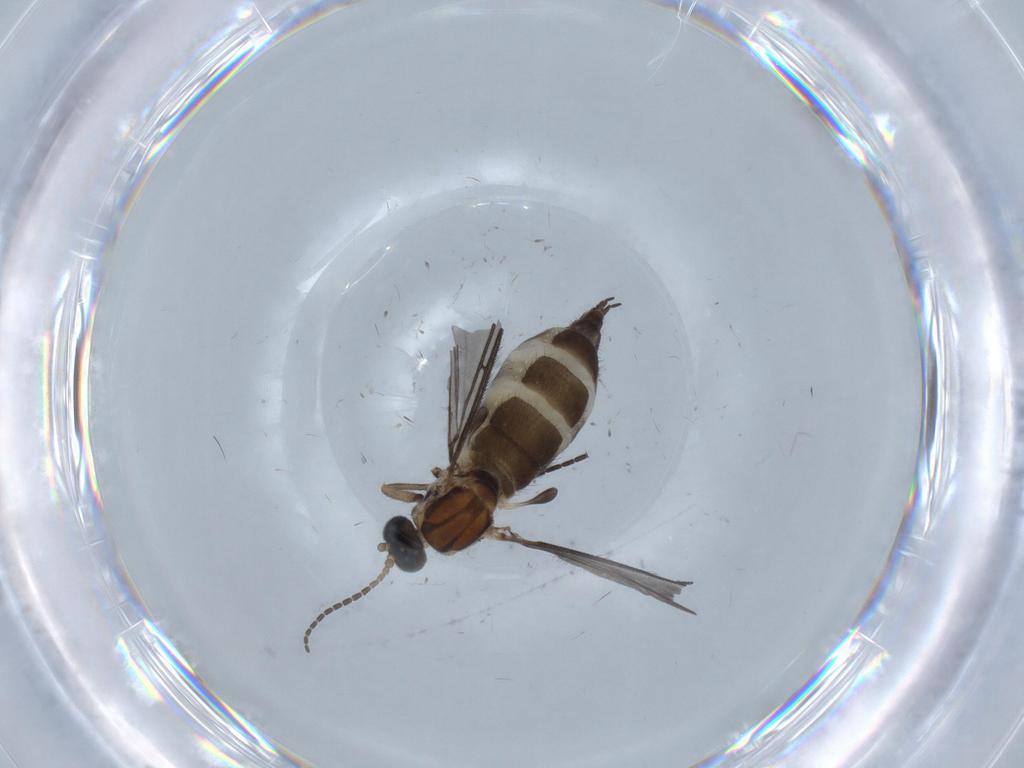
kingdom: Animalia
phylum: Arthropoda
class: Insecta
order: Diptera
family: Sciaridae
